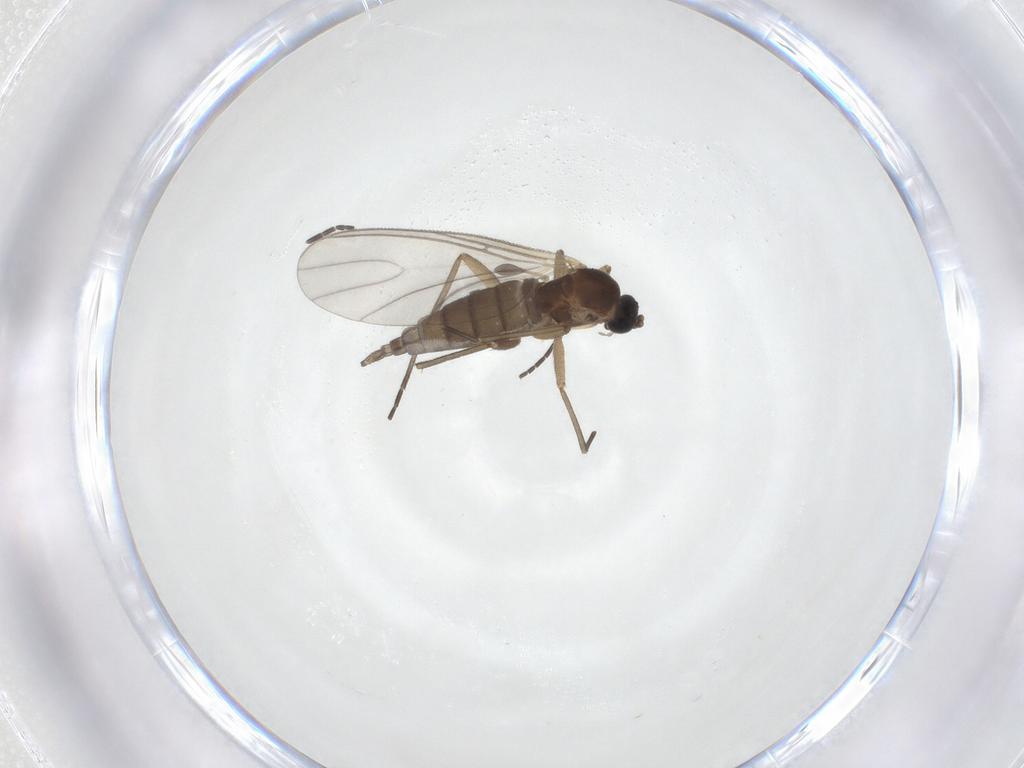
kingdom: Animalia
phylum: Arthropoda
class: Insecta
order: Diptera
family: Sciaridae
